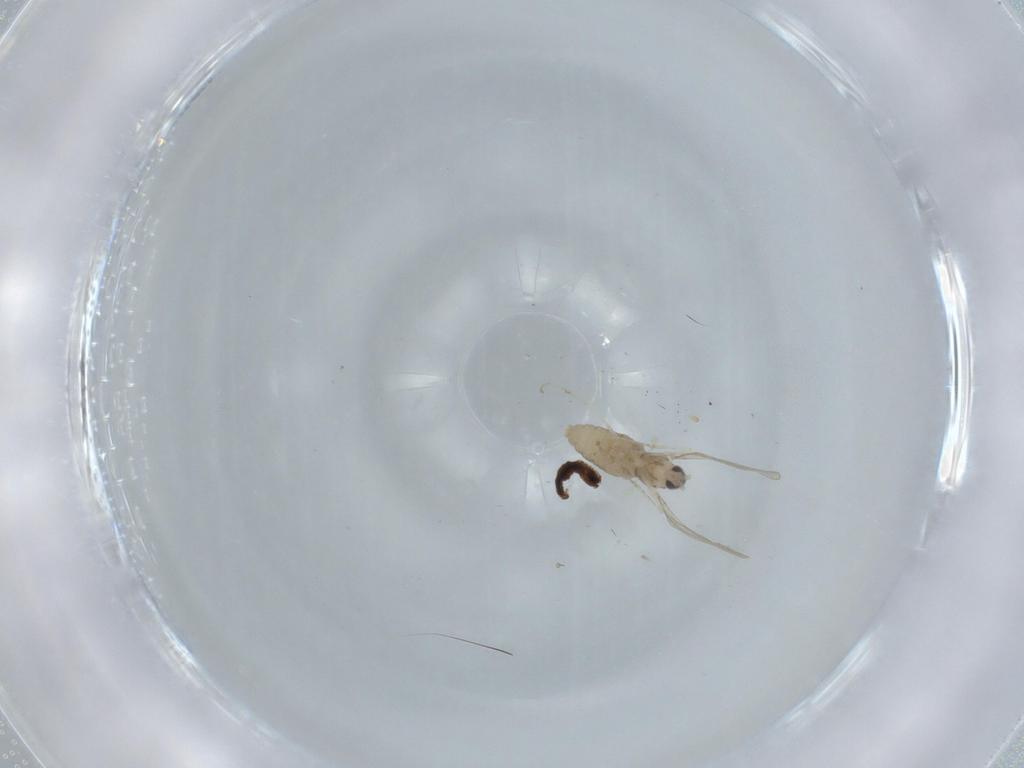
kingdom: Animalia
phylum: Arthropoda
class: Insecta
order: Diptera
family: Cecidomyiidae
